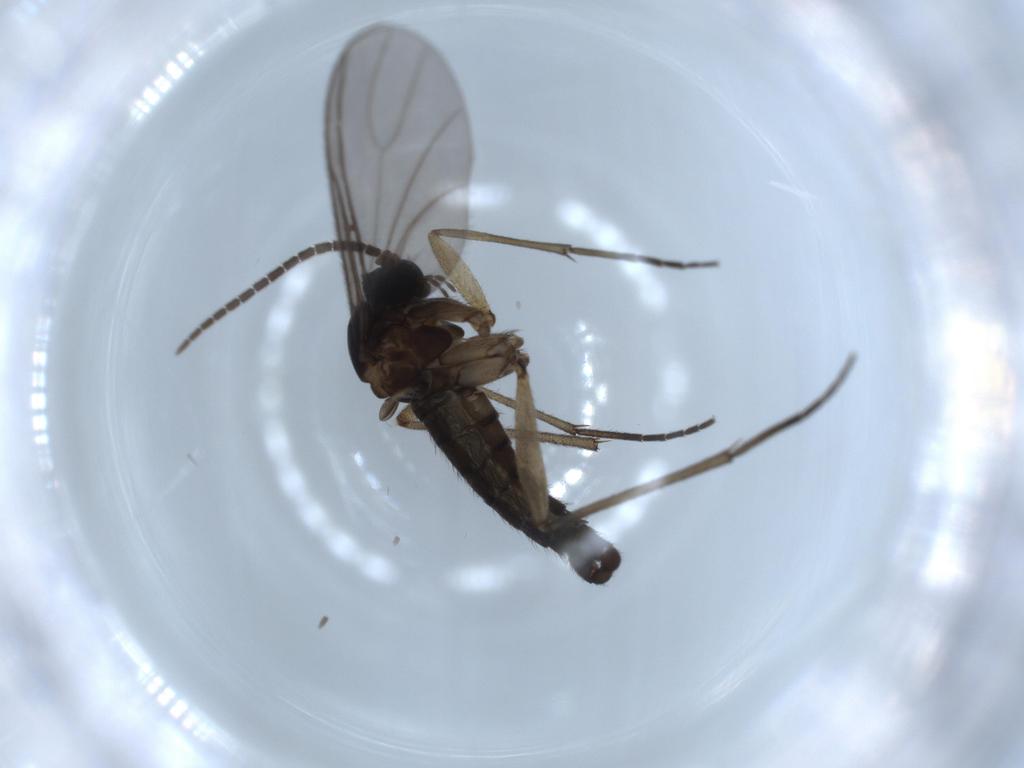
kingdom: Animalia
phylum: Arthropoda
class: Insecta
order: Diptera
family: Sciaridae
